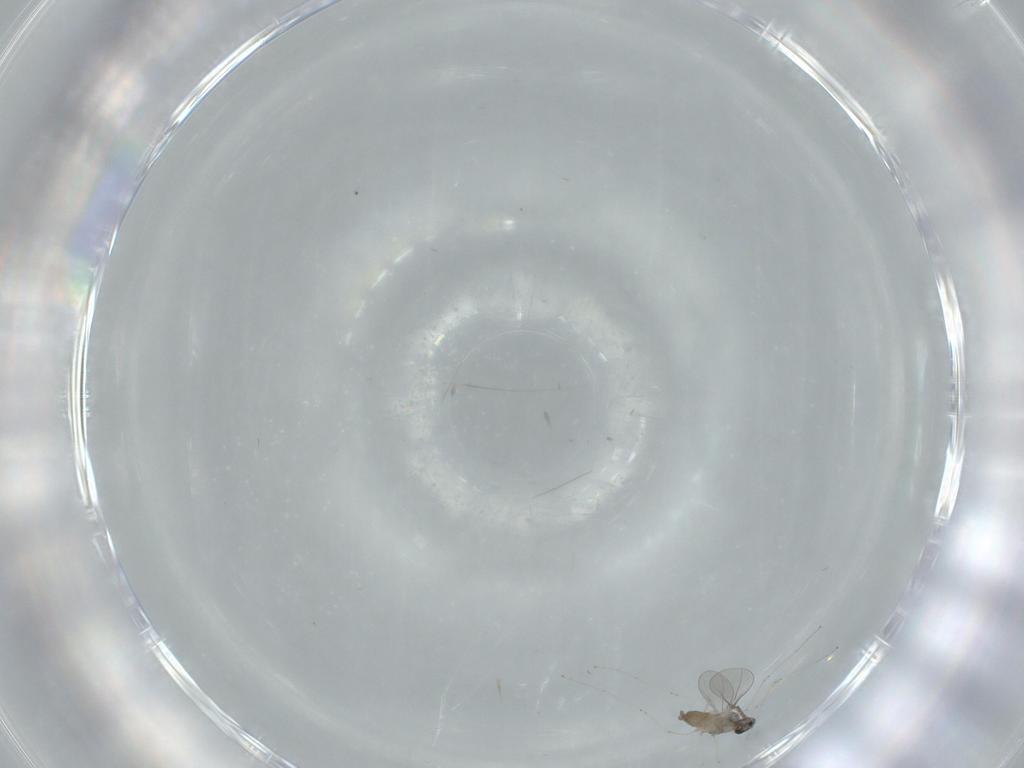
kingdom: Animalia
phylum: Arthropoda
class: Insecta
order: Diptera
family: Cecidomyiidae
